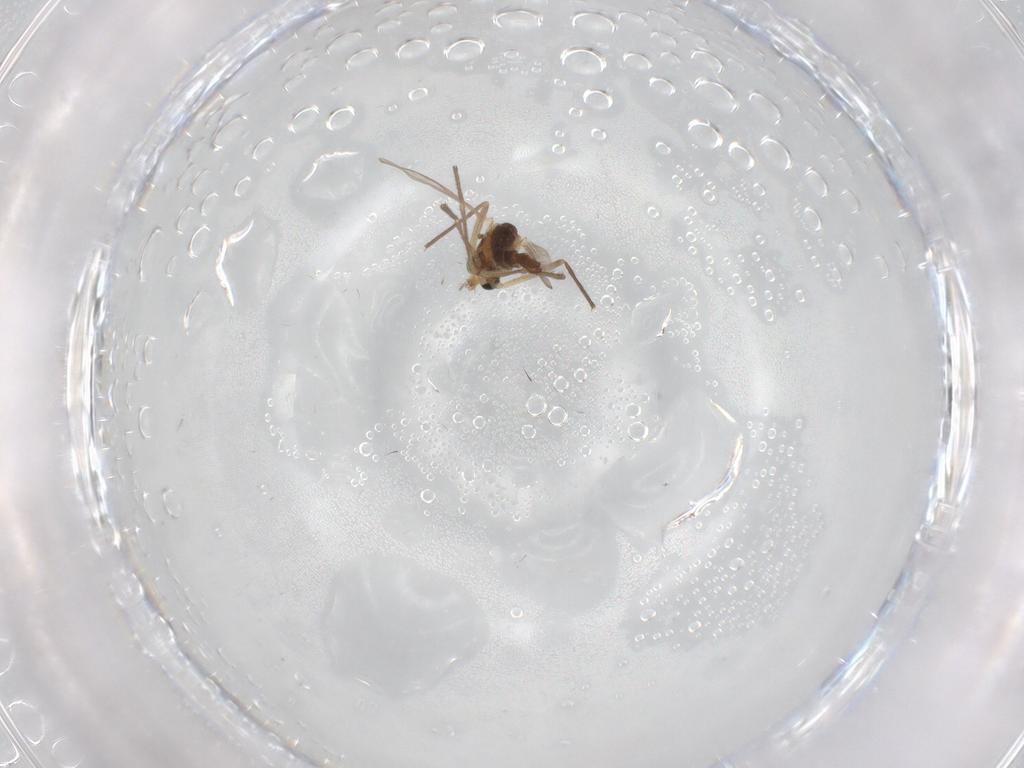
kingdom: Animalia
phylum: Arthropoda
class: Insecta
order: Diptera
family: Chironomidae
